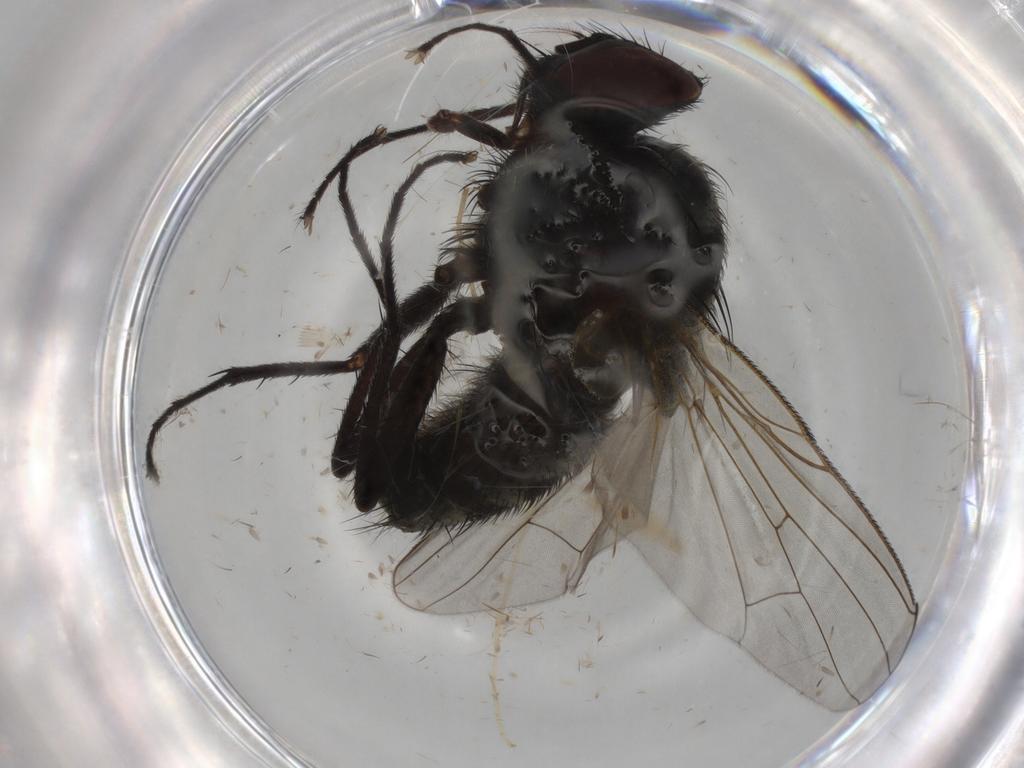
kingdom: Animalia
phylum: Arthropoda
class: Insecta
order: Diptera
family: Muscidae
